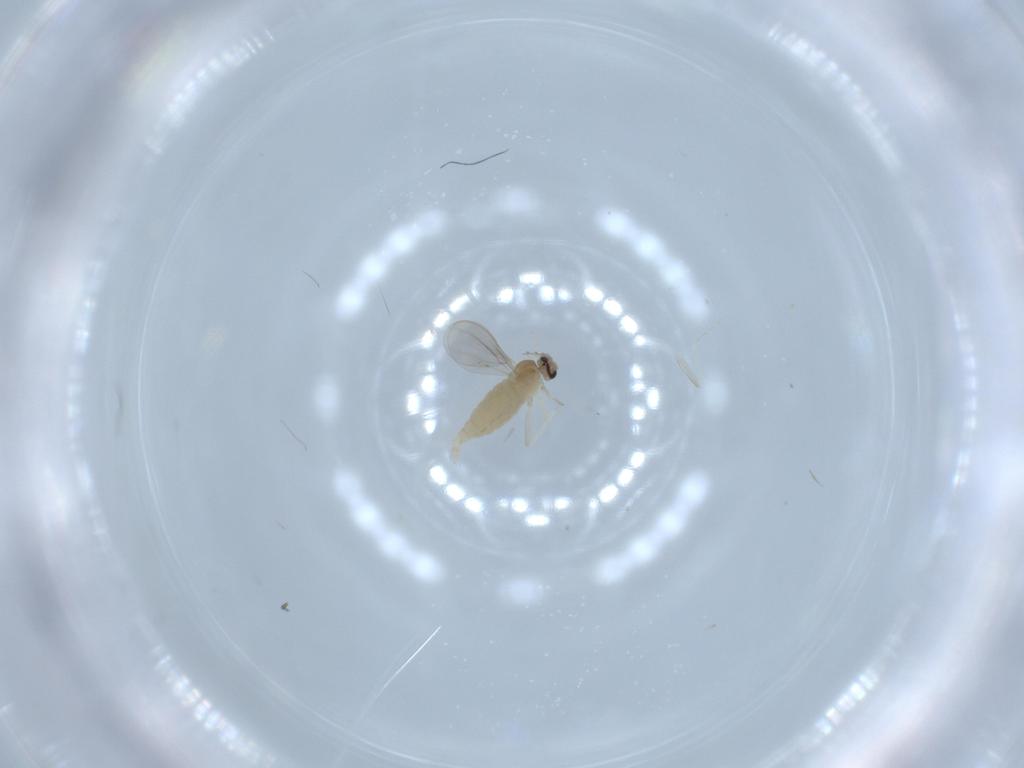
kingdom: Animalia
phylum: Arthropoda
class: Insecta
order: Diptera
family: Cecidomyiidae
